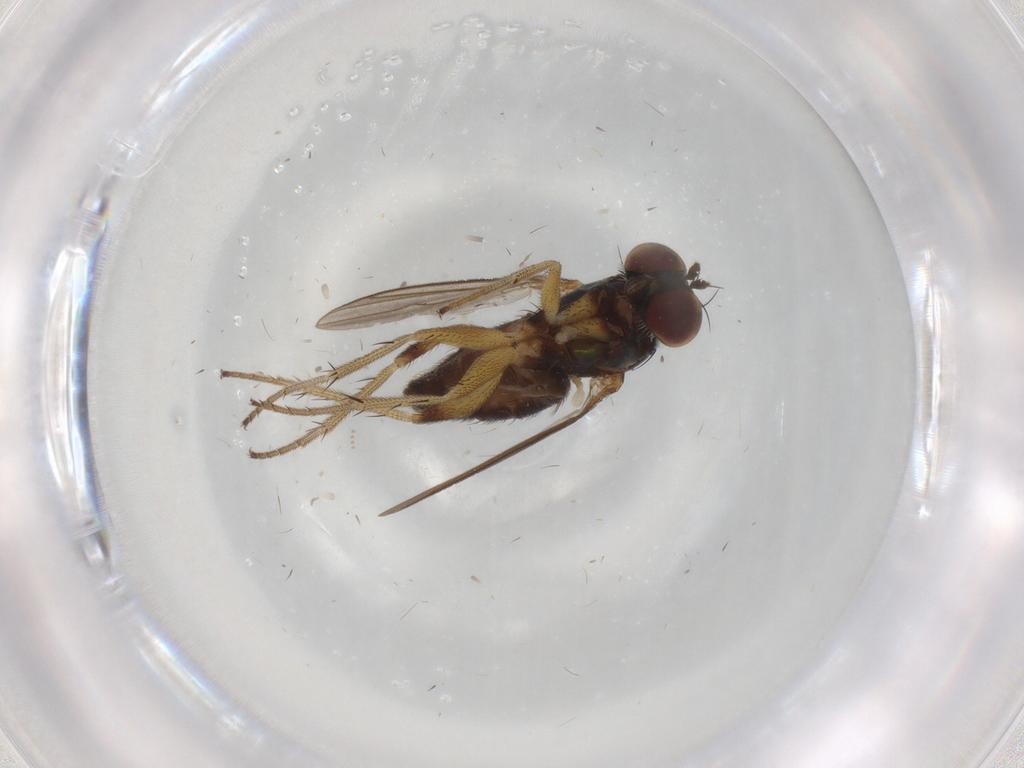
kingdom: Animalia
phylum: Arthropoda
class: Insecta
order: Diptera
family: Dolichopodidae
